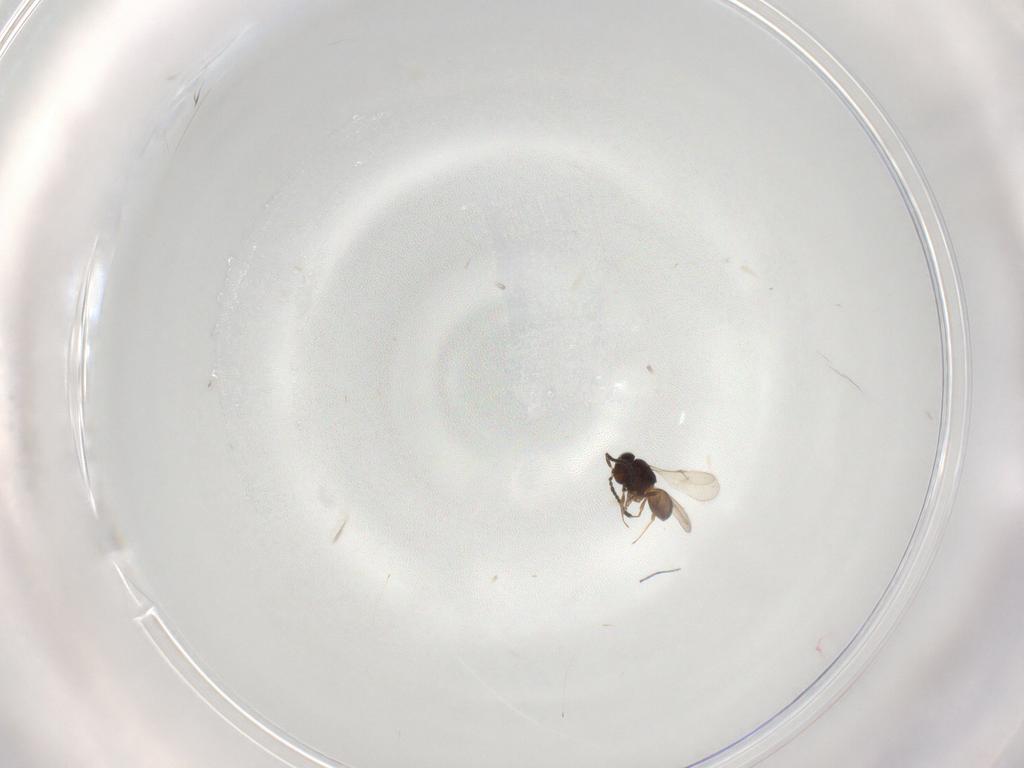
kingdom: Animalia
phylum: Arthropoda
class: Insecta
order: Hymenoptera
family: Scelionidae
